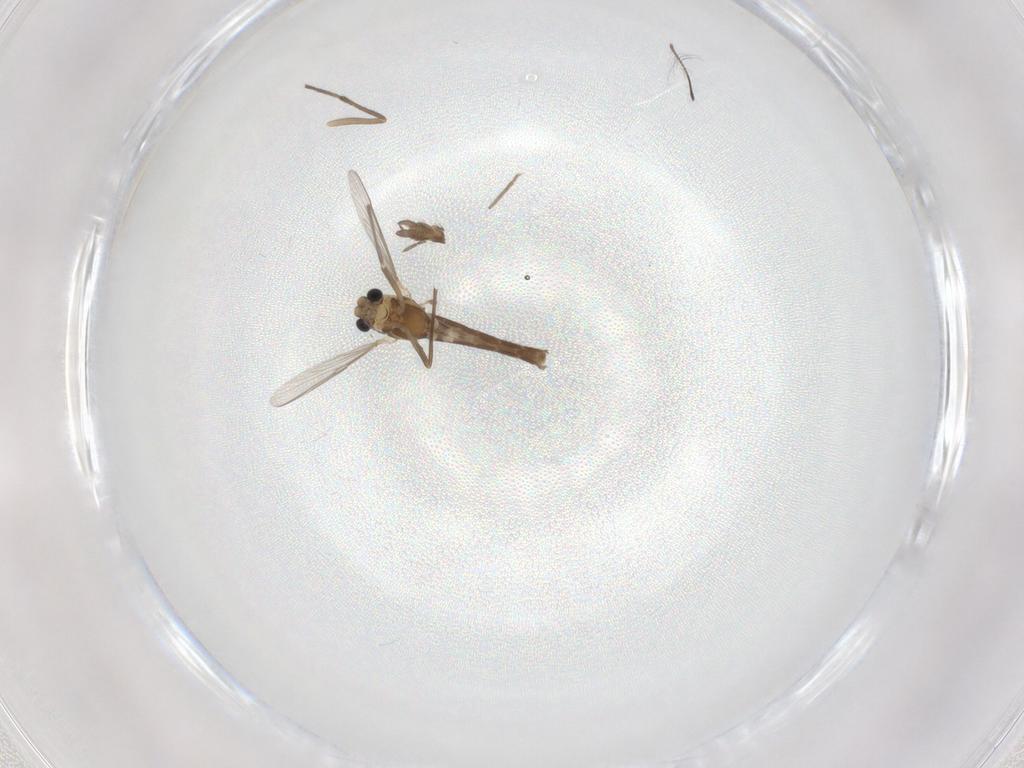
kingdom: Animalia
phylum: Arthropoda
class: Insecta
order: Diptera
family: Chironomidae
